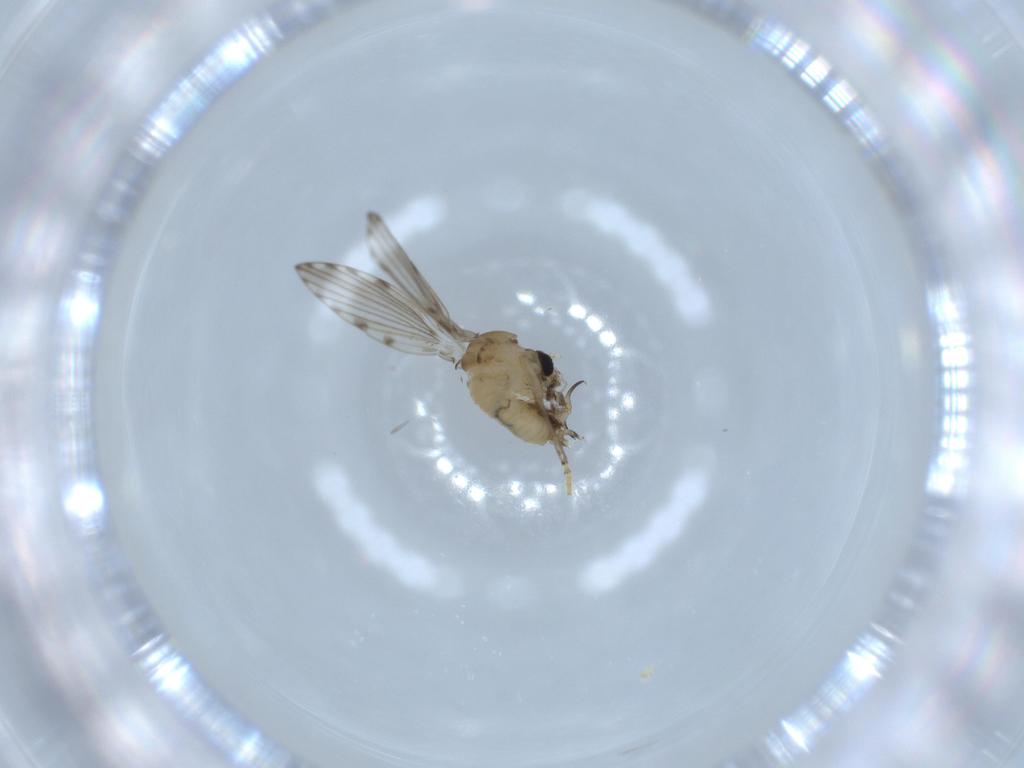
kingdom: Animalia
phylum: Arthropoda
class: Insecta
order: Diptera
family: Psychodidae
